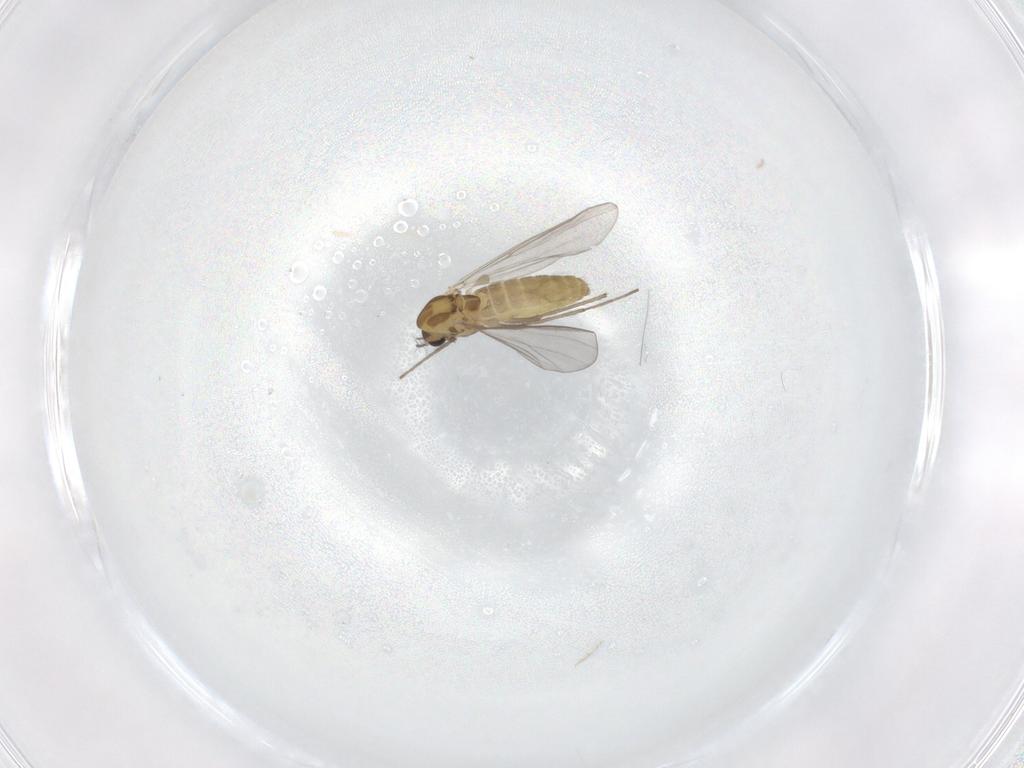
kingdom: Animalia
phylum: Arthropoda
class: Insecta
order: Diptera
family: Chironomidae
